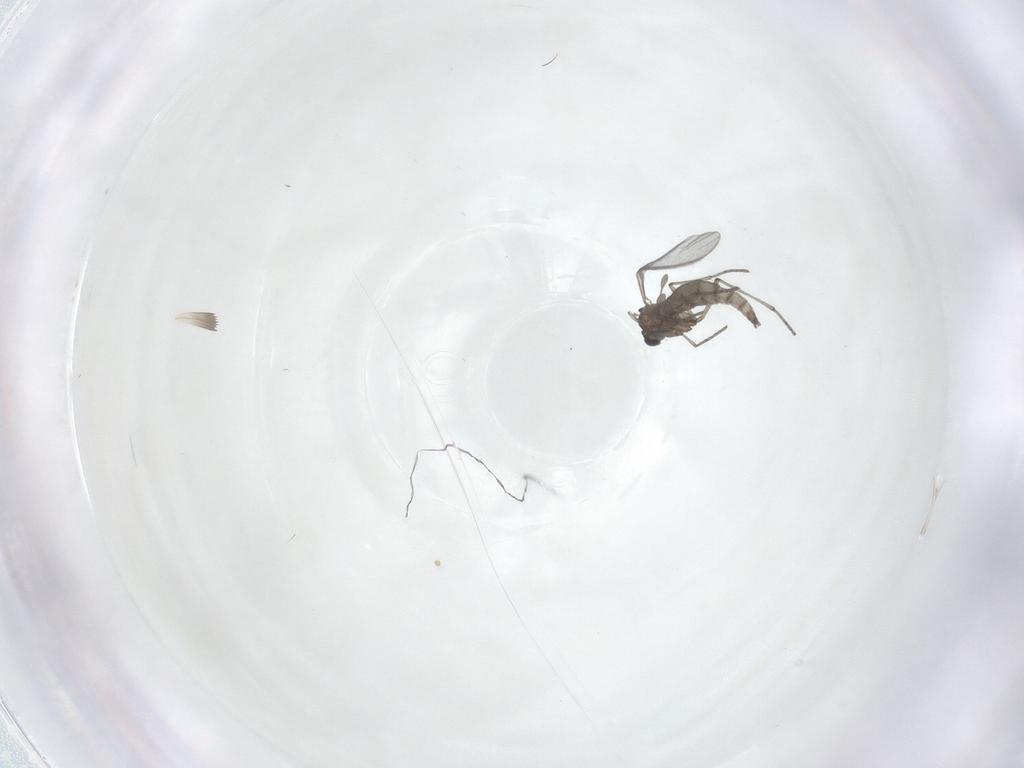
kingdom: Animalia
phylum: Arthropoda
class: Insecta
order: Diptera
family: Sciaridae
